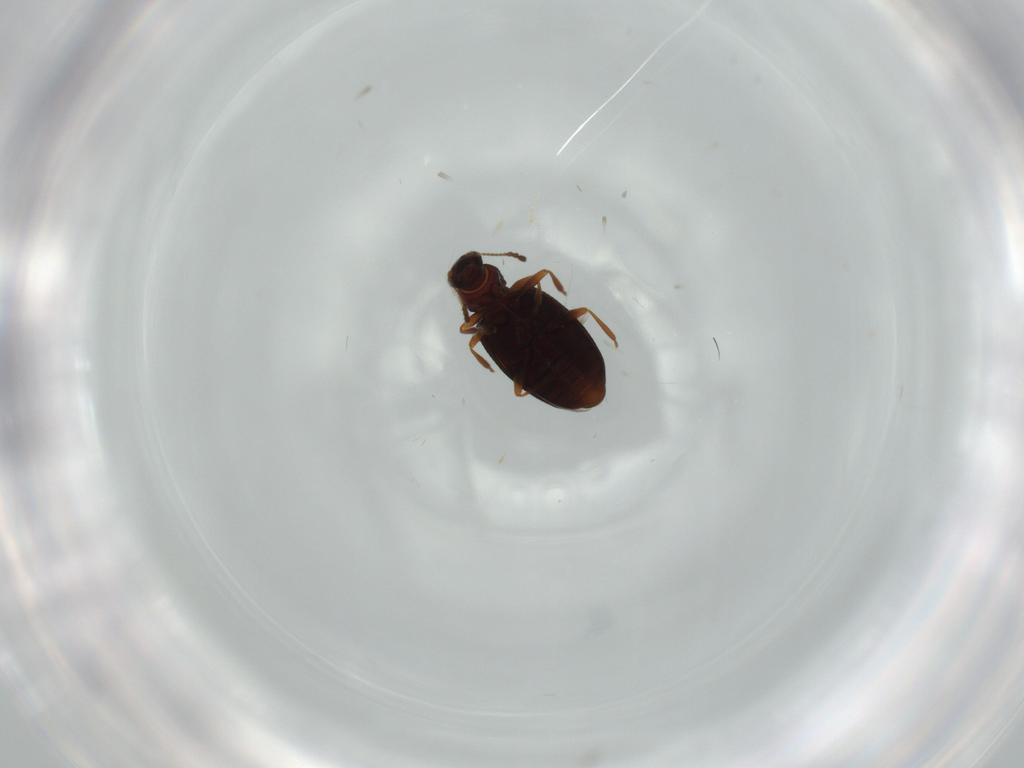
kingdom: Animalia
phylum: Arthropoda
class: Insecta
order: Coleoptera
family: Latridiidae
